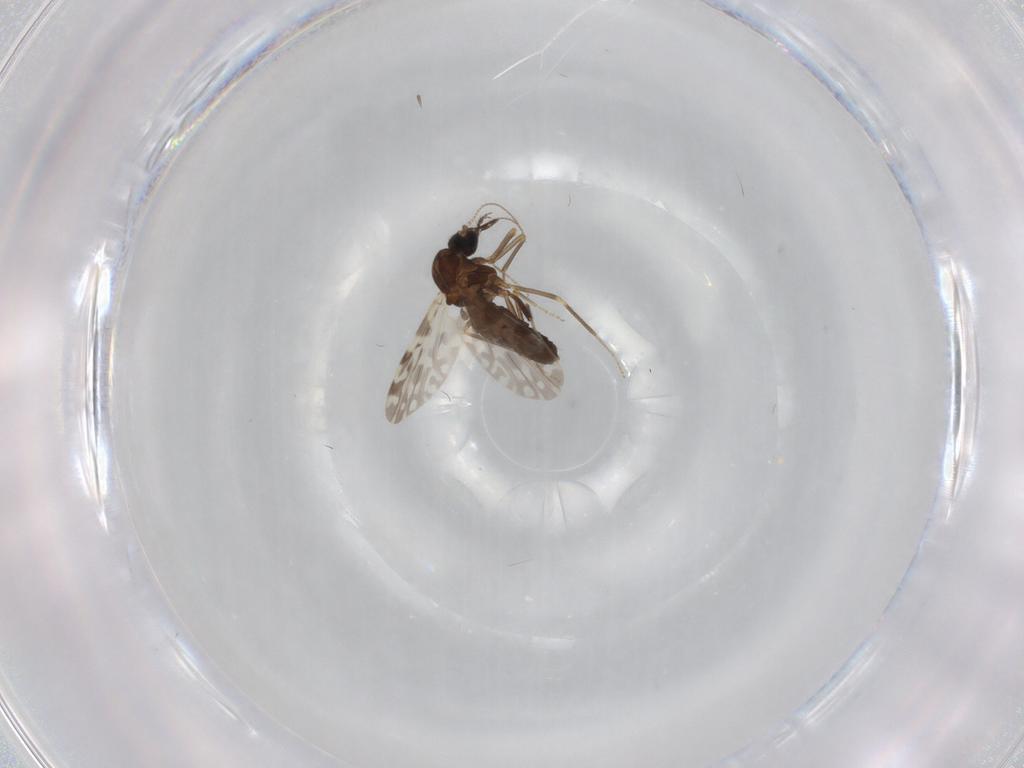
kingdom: Animalia
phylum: Arthropoda
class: Insecta
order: Diptera
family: Ceratopogonidae
